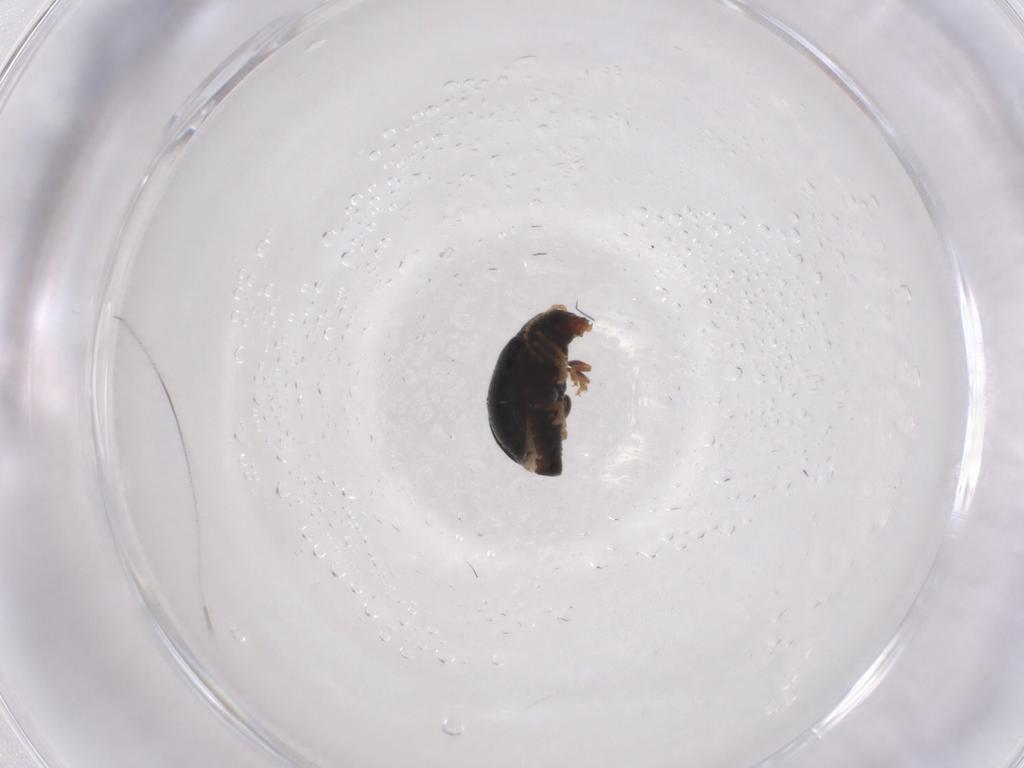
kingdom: Animalia
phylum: Arthropoda
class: Insecta
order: Coleoptera
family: Chrysomelidae
